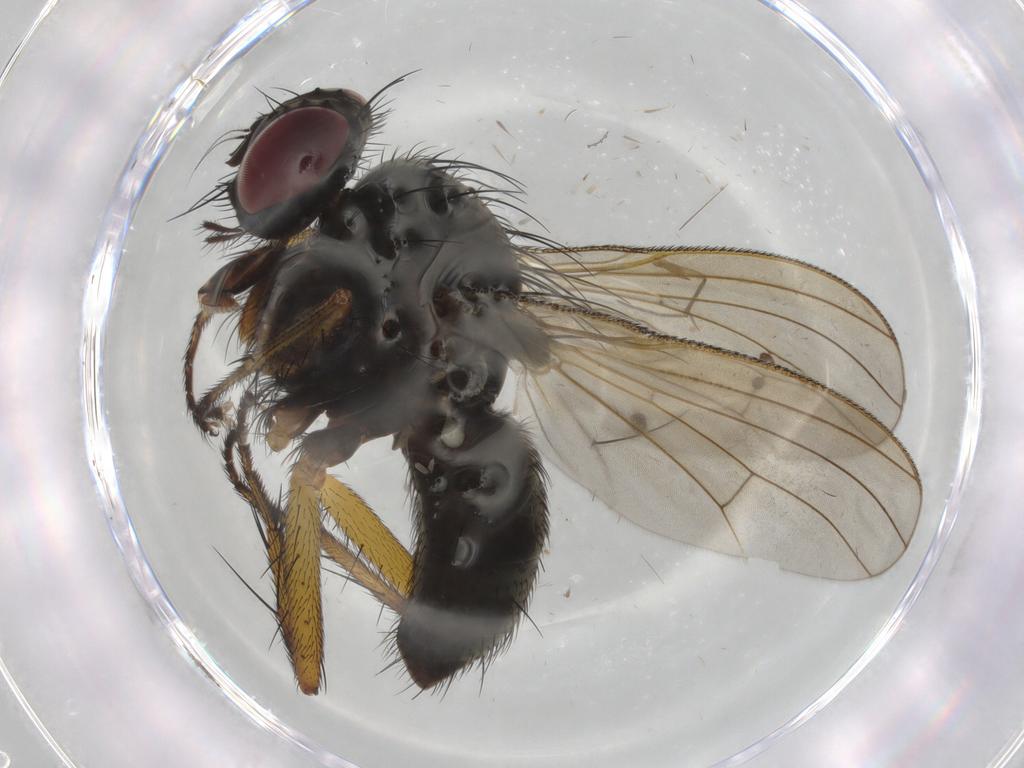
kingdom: Animalia
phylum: Arthropoda
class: Insecta
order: Diptera
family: Muscidae
